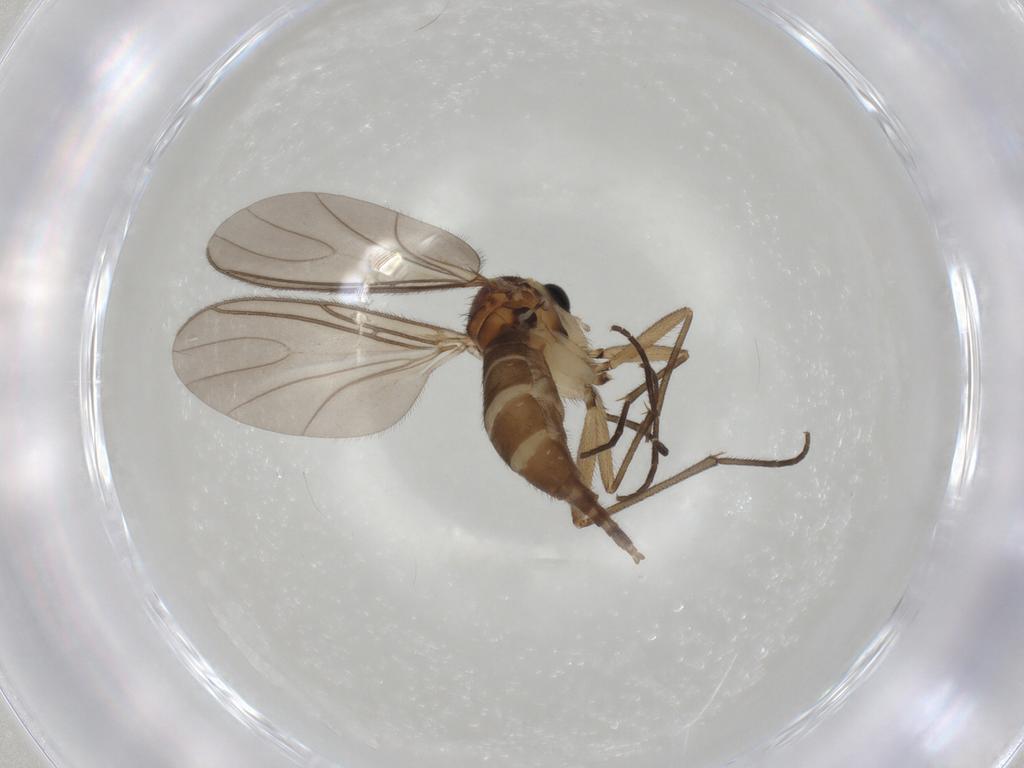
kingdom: Animalia
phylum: Arthropoda
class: Insecta
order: Diptera
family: Sciaridae
